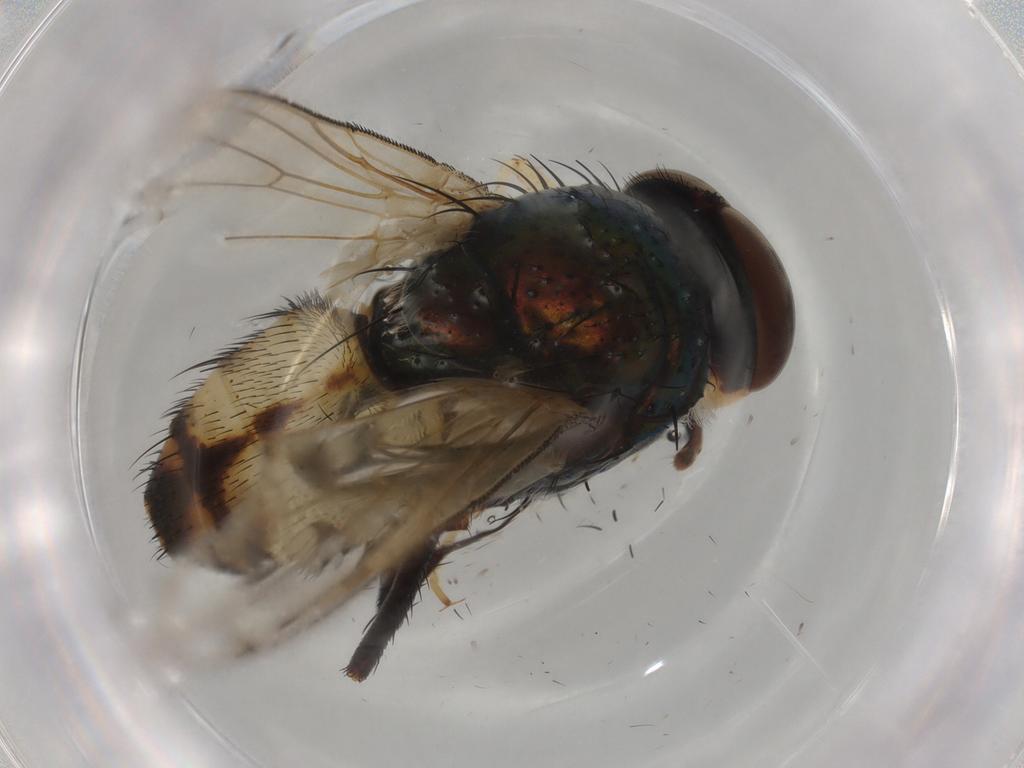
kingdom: Animalia
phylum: Arthropoda
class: Insecta
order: Diptera
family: Calliphoridae
